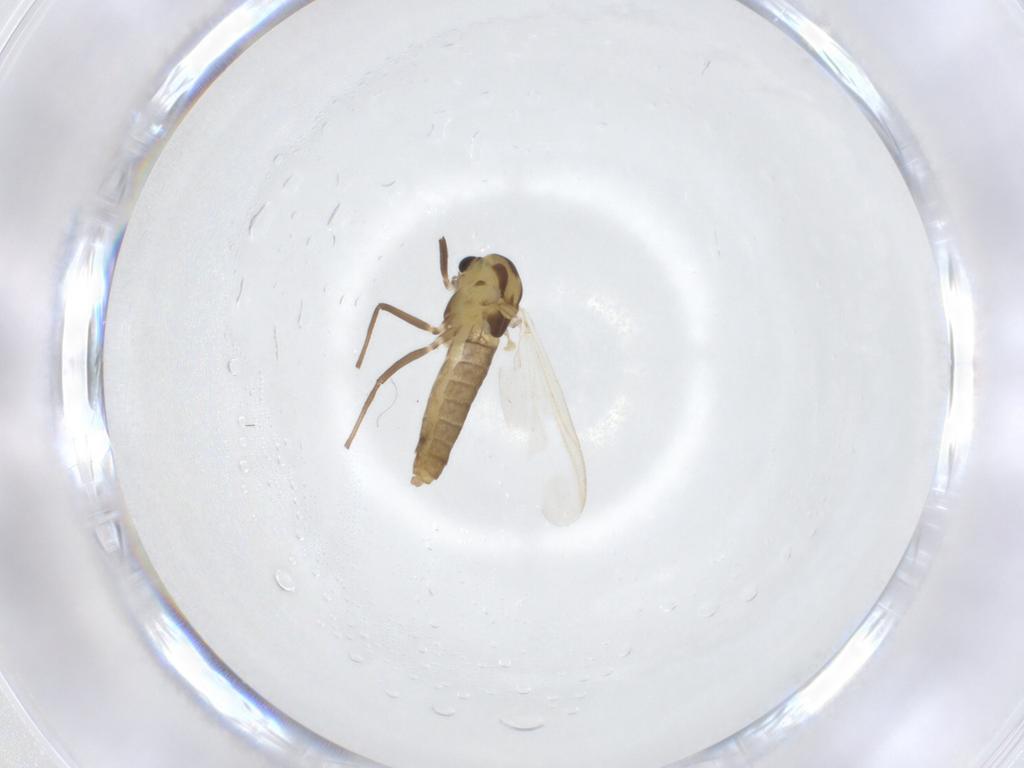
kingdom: Animalia
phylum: Arthropoda
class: Insecta
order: Diptera
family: Chironomidae
